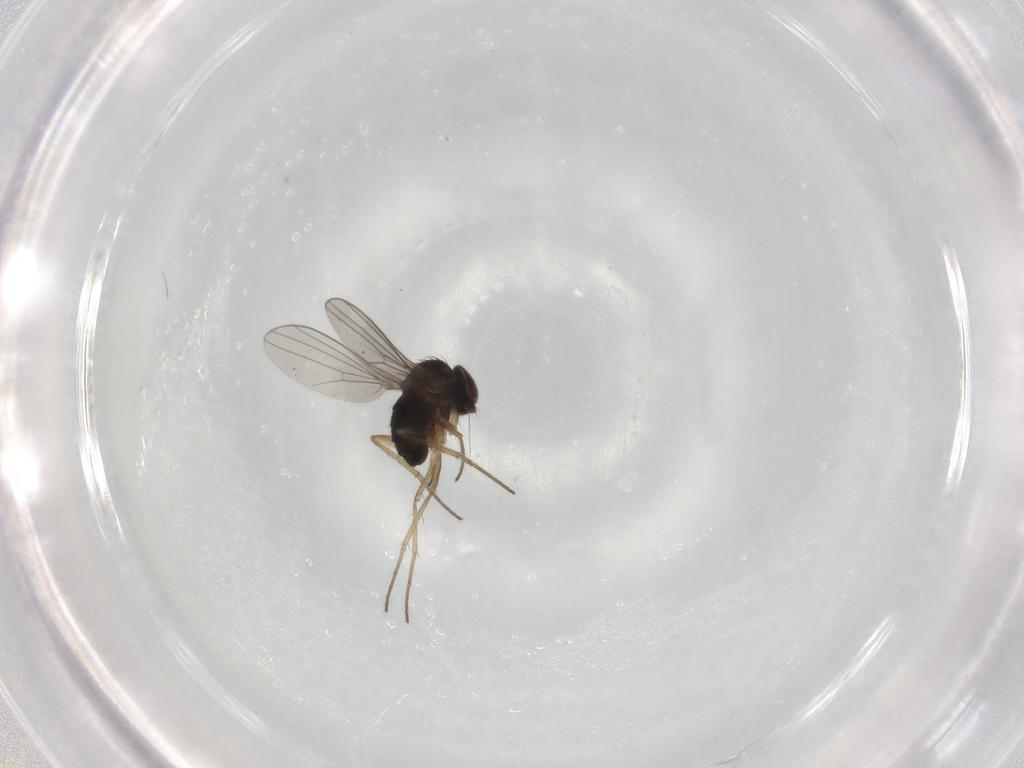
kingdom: Animalia
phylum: Arthropoda
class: Insecta
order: Diptera
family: Dolichopodidae
